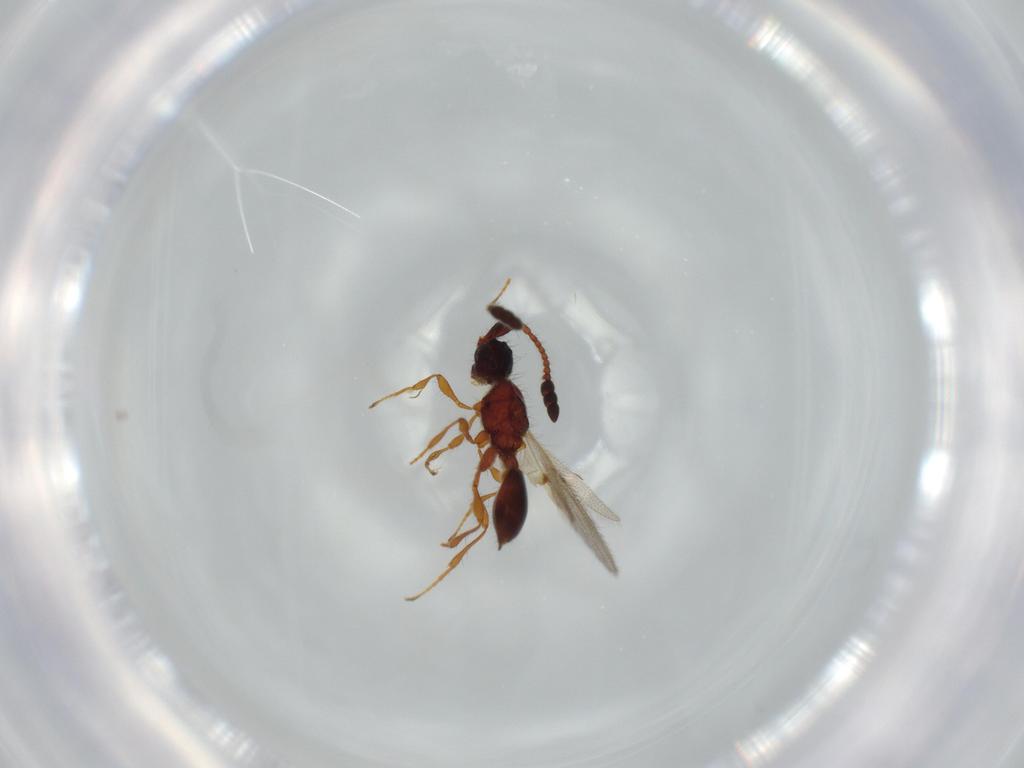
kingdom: Animalia
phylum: Arthropoda
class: Insecta
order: Hymenoptera
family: Diapriidae
